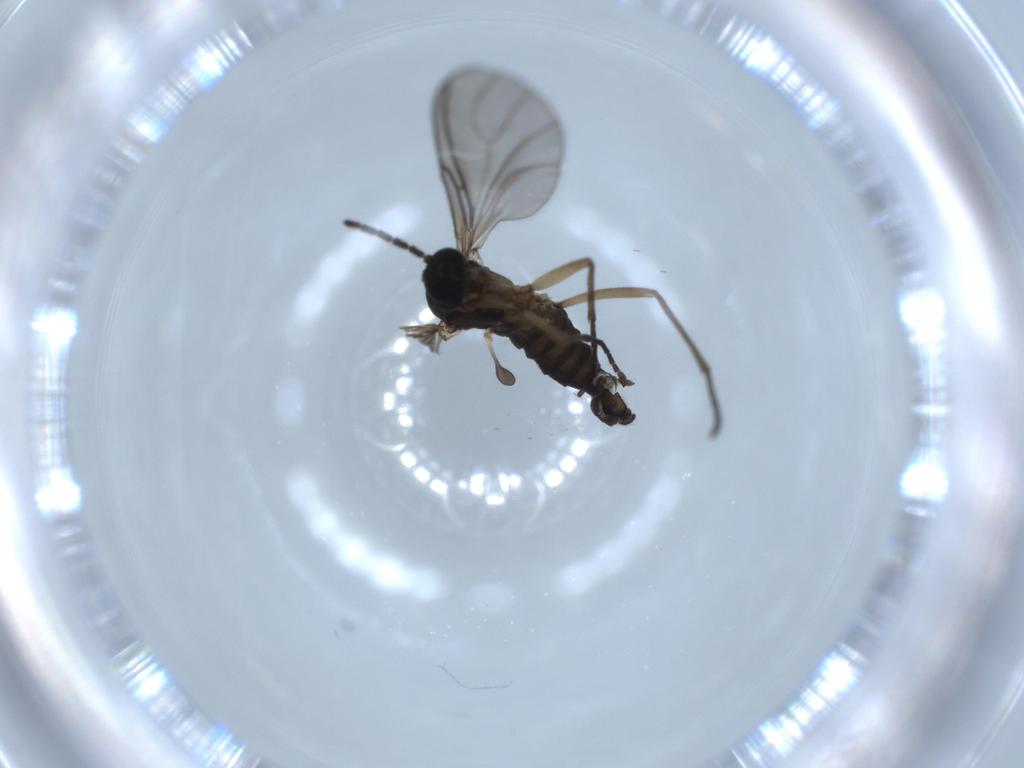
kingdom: Animalia
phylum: Arthropoda
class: Insecta
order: Diptera
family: Sciaridae
